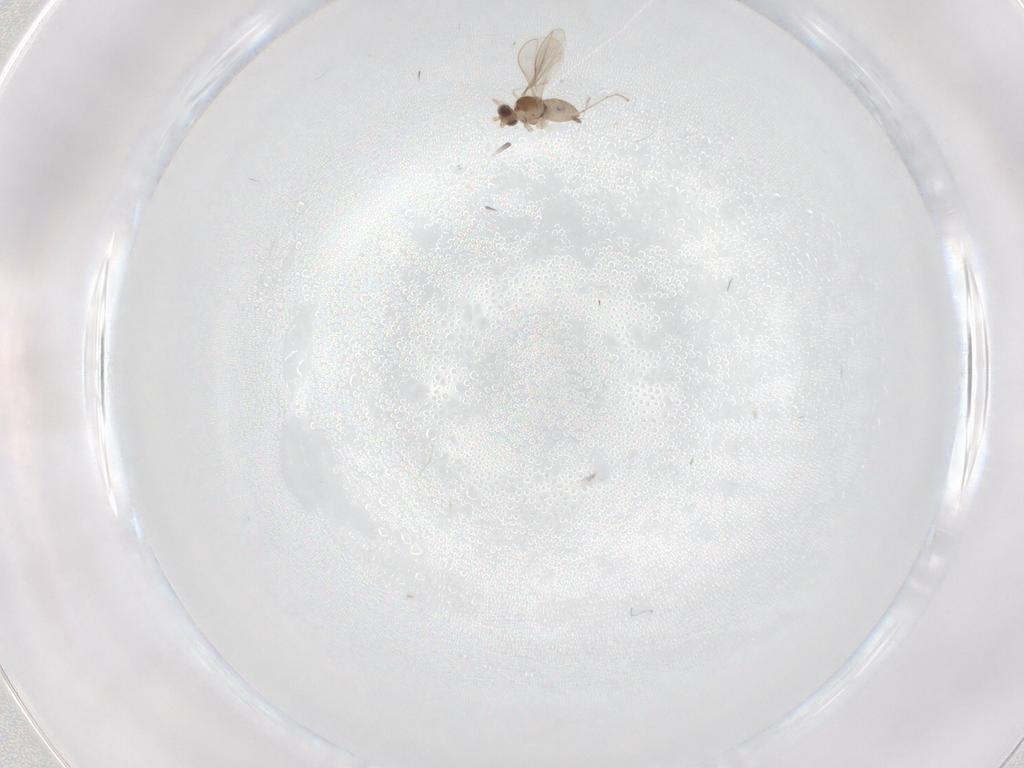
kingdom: Animalia
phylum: Arthropoda
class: Insecta
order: Diptera
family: Cecidomyiidae
